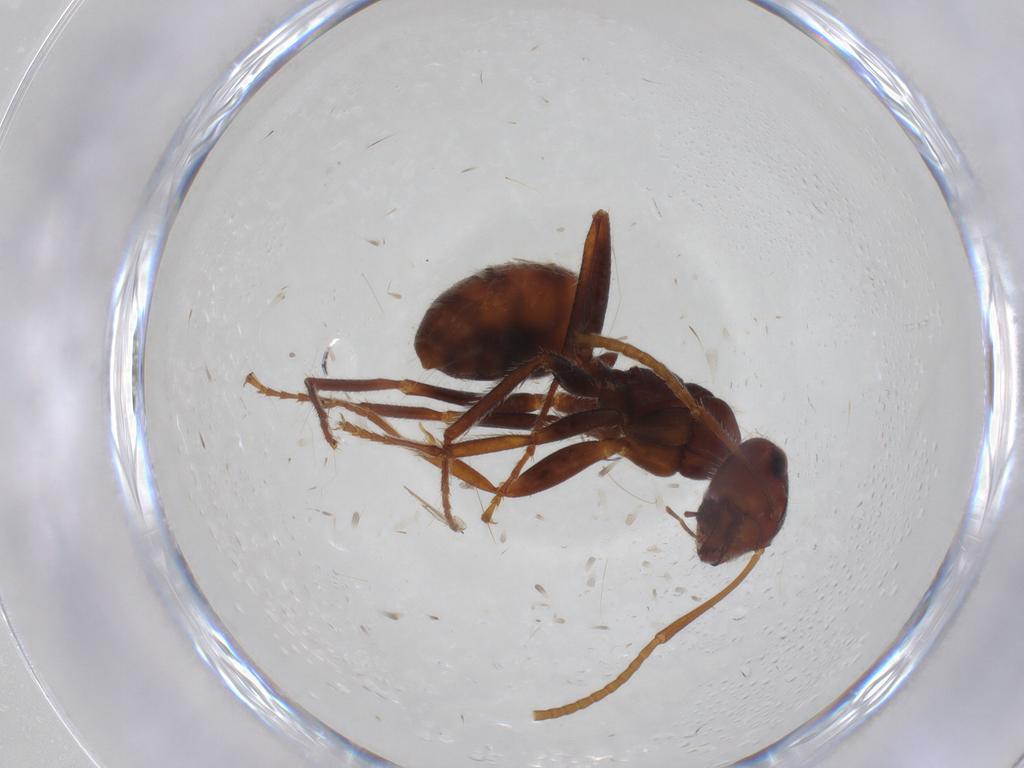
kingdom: Animalia
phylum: Arthropoda
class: Insecta
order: Hymenoptera
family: Formicidae
